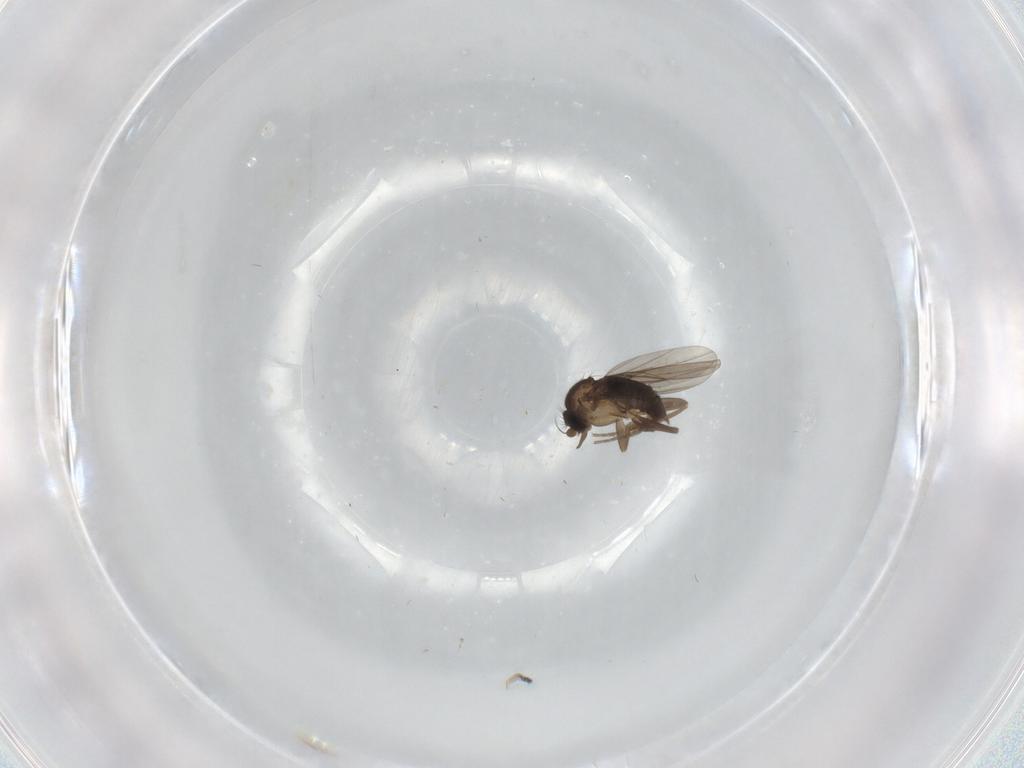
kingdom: Animalia
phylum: Arthropoda
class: Insecta
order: Diptera
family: Phoridae
